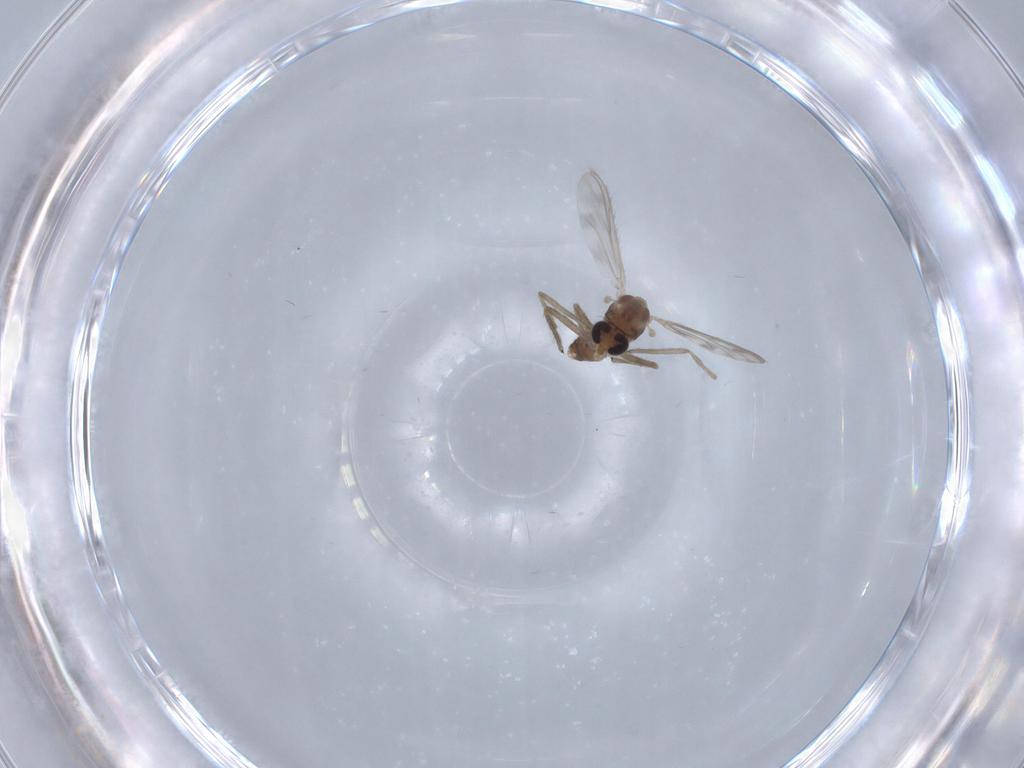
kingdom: Animalia
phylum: Arthropoda
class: Insecta
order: Diptera
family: Chironomidae
